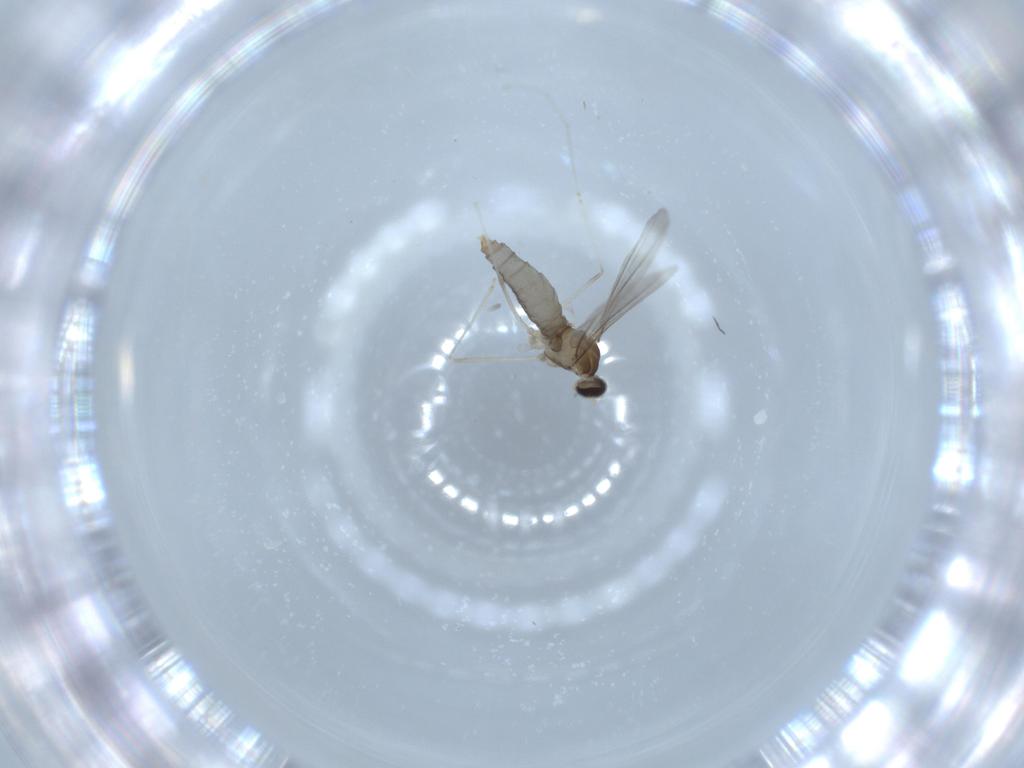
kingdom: Animalia
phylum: Arthropoda
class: Insecta
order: Diptera
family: Cecidomyiidae
